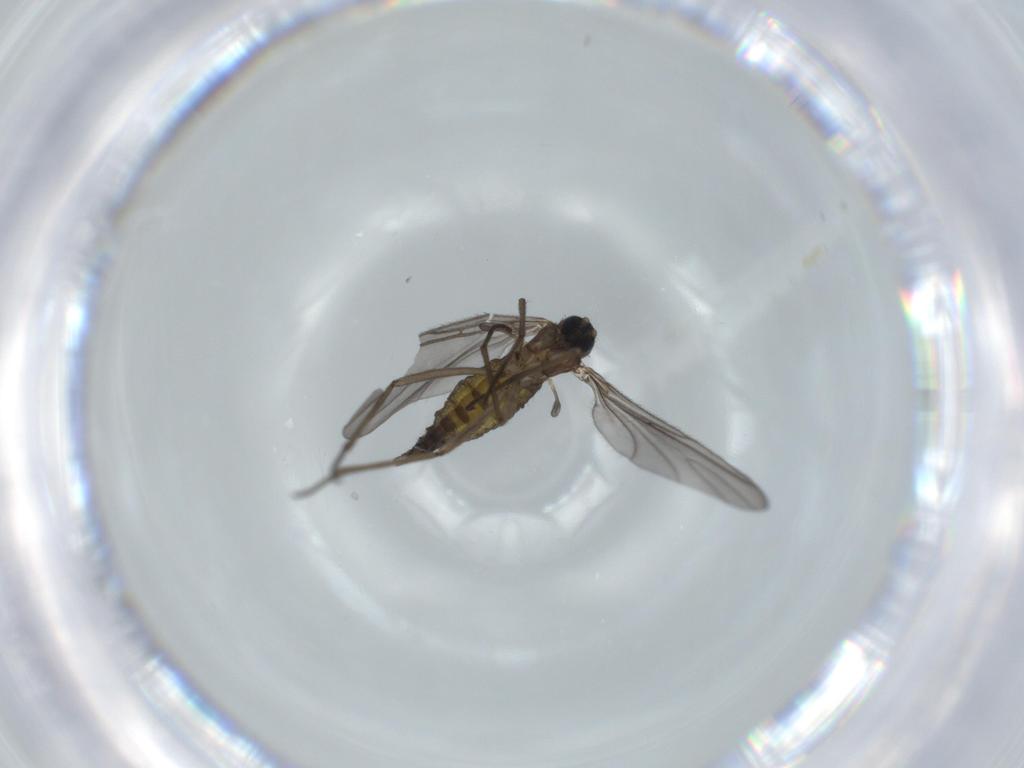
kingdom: Animalia
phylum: Arthropoda
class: Insecta
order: Diptera
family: Sciaridae
